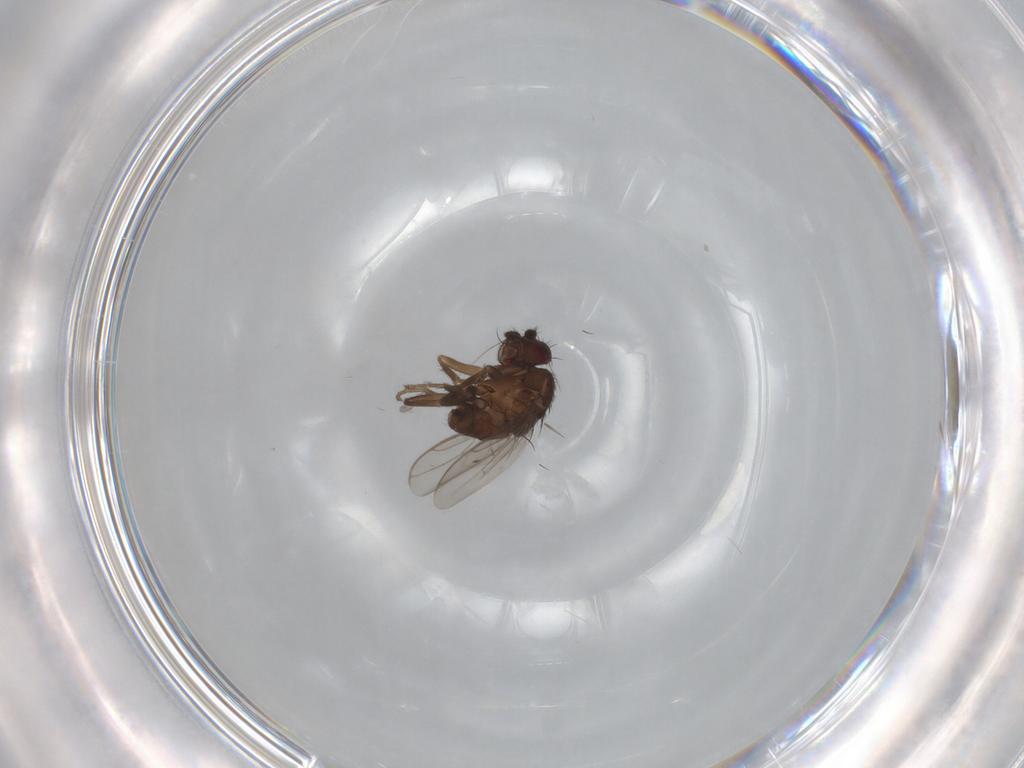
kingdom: Animalia
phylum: Arthropoda
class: Insecta
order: Diptera
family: Sphaeroceridae
